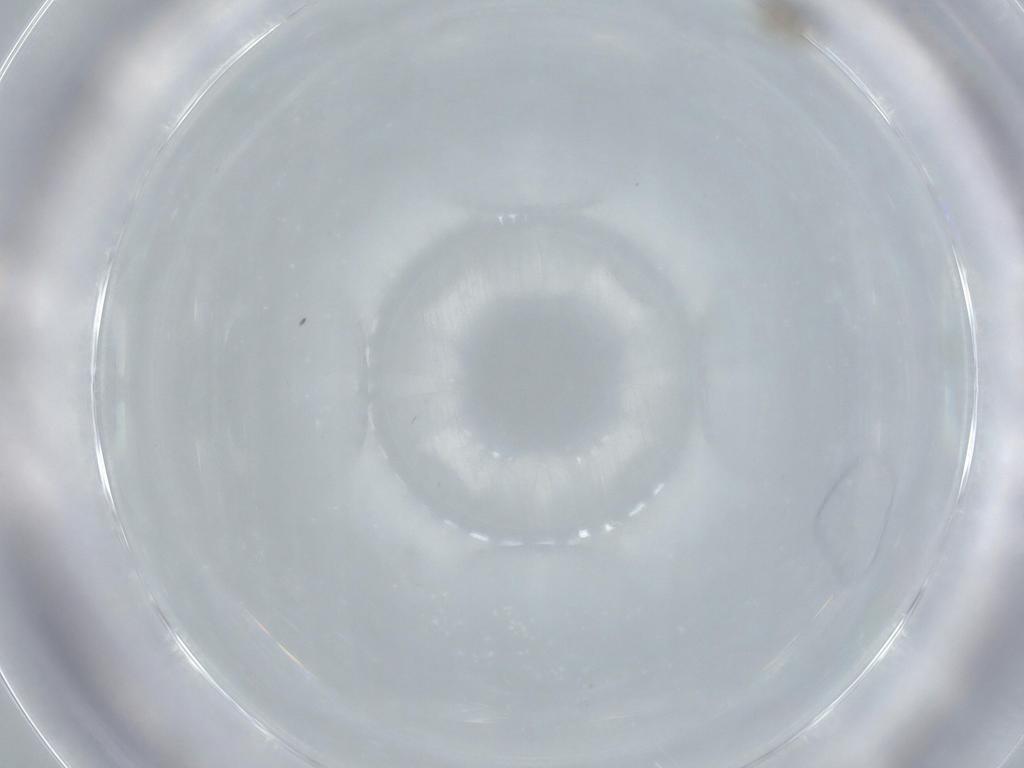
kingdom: Animalia
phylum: Arthropoda
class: Insecta
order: Diptera
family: Cecidomyiidae
